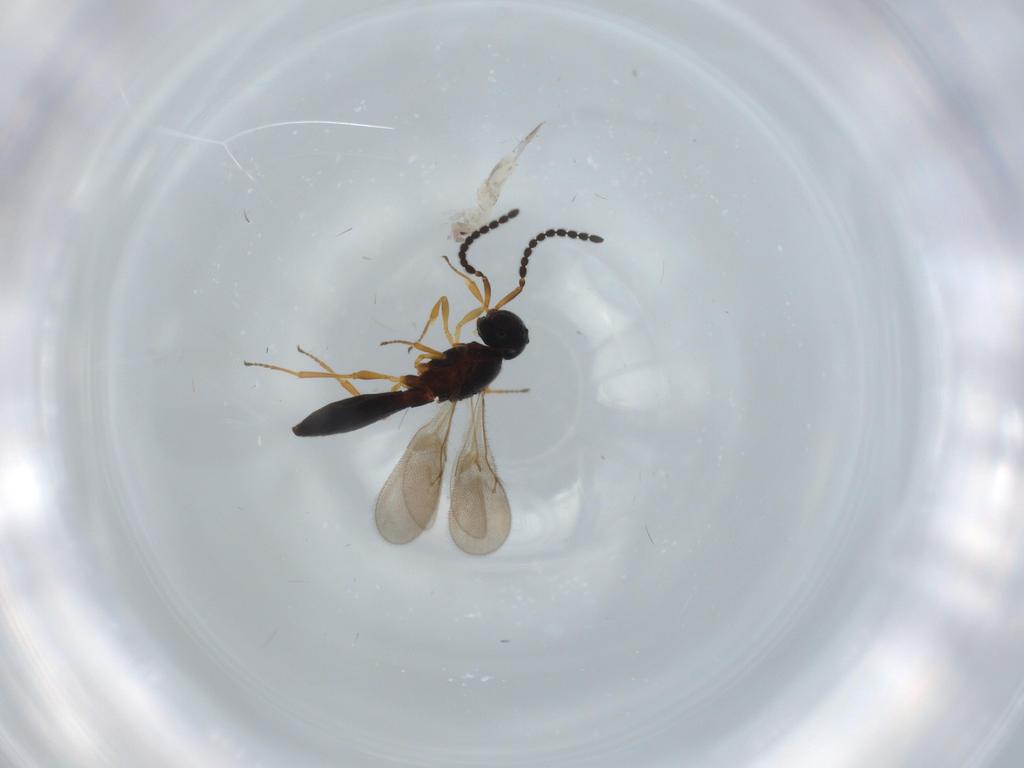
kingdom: Animalia
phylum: Arthropoda
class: Insecta
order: Hymenoptera
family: Scelionidae
